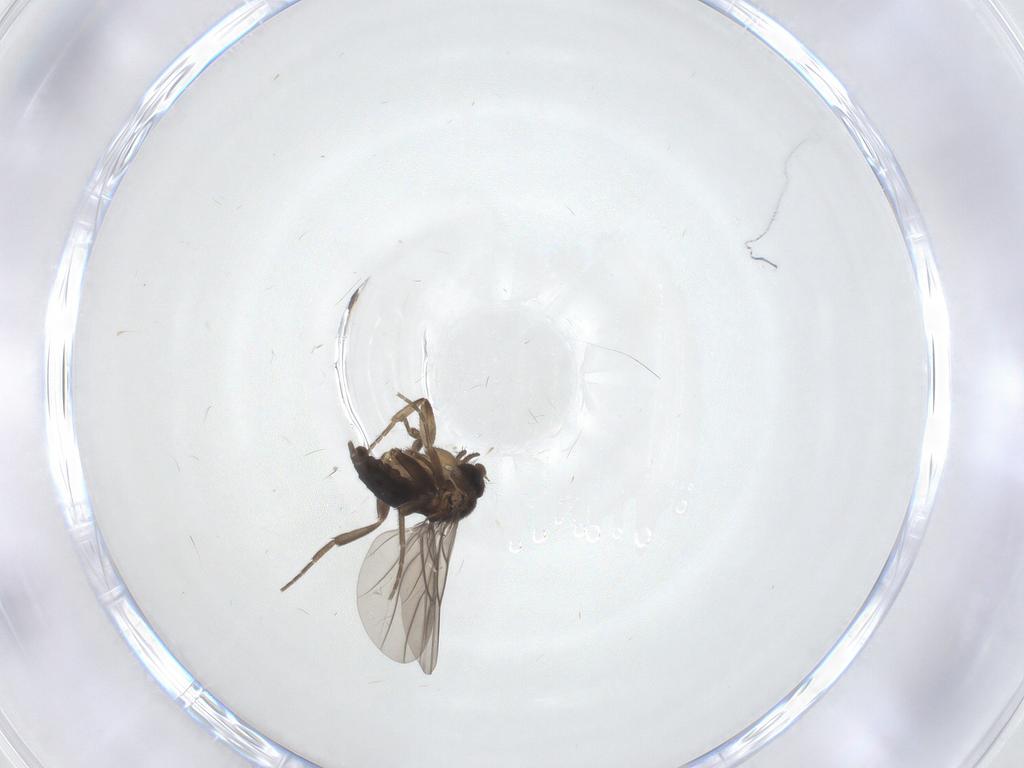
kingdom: Animalia
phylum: Arthropoda
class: Insecta
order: Diptera
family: Phoridae
